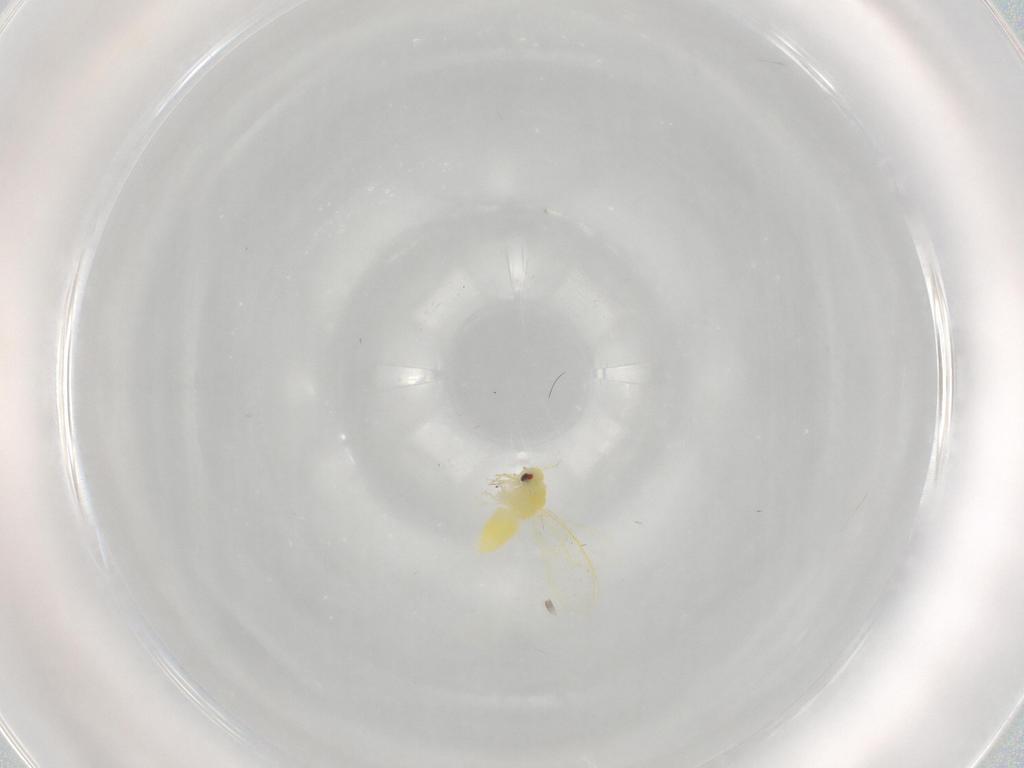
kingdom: Animalia
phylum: Arthropoda
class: Insecta
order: Hemiptera
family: Aleyrodidae
